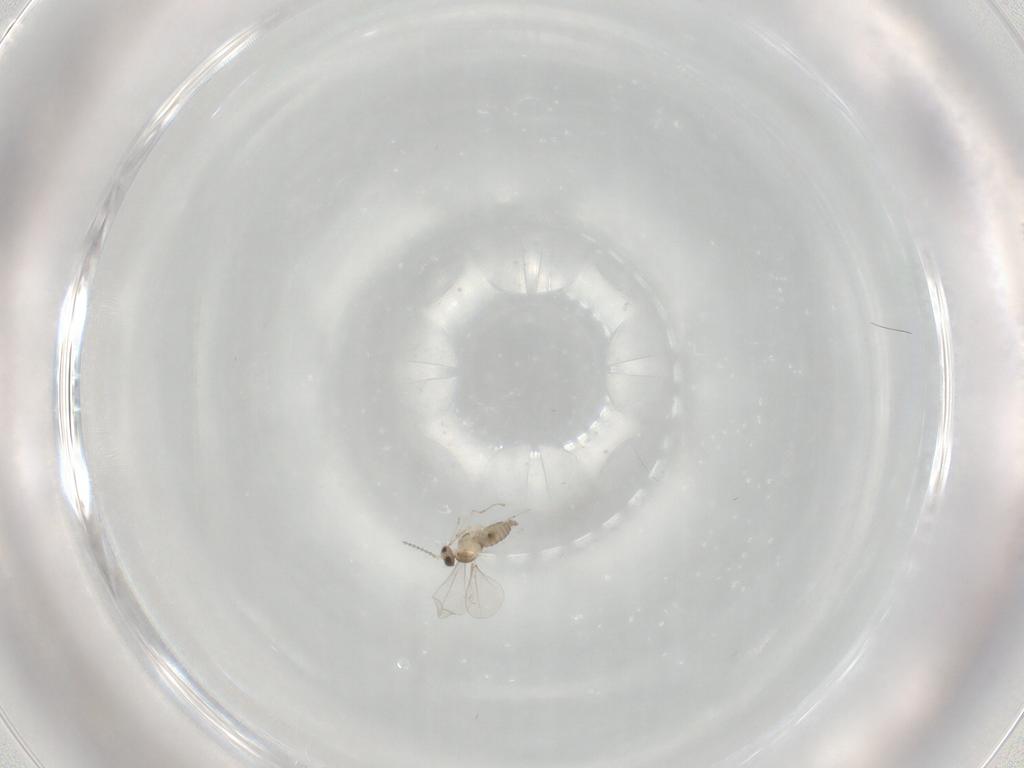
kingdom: Animalia
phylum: Arthropoda
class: Insecta
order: Diptera
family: Cecidomyiidae
